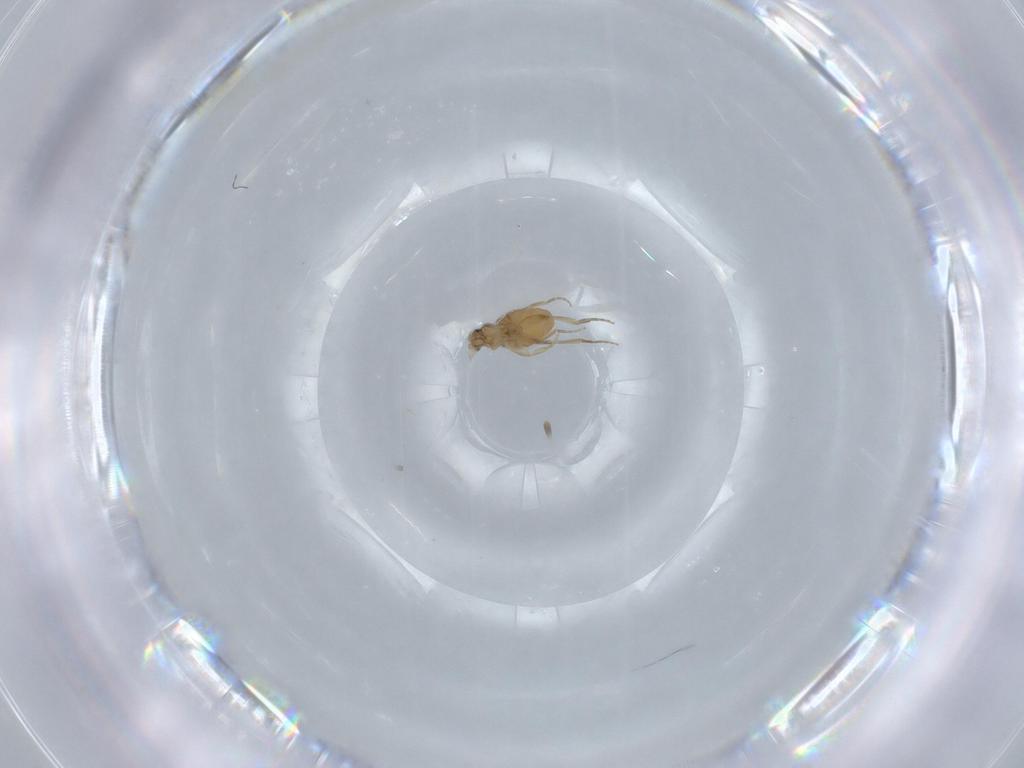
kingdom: Animalia
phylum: Arthropoda
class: Insecta
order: Diptera
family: Phoridae
